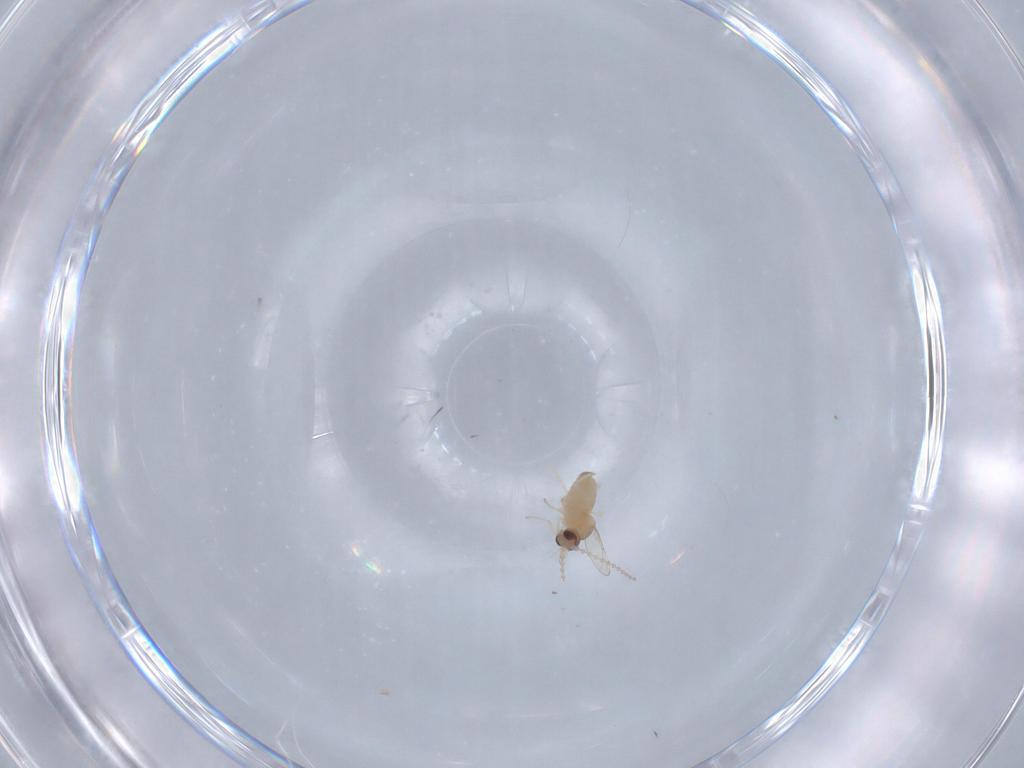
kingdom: Animalia
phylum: Arthropoda
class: Insecta
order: Diptera
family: Cecidomyiidae
